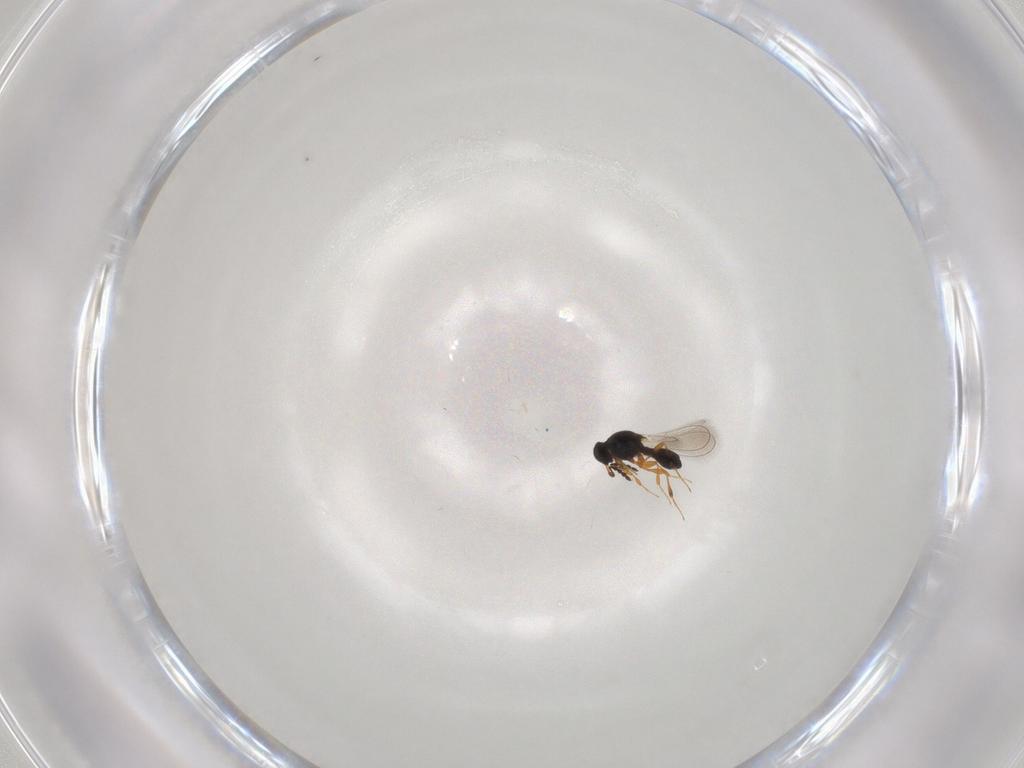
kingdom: Animalia
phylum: Arthropoda
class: Insecta
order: Hymenoptera
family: Platygastridae
